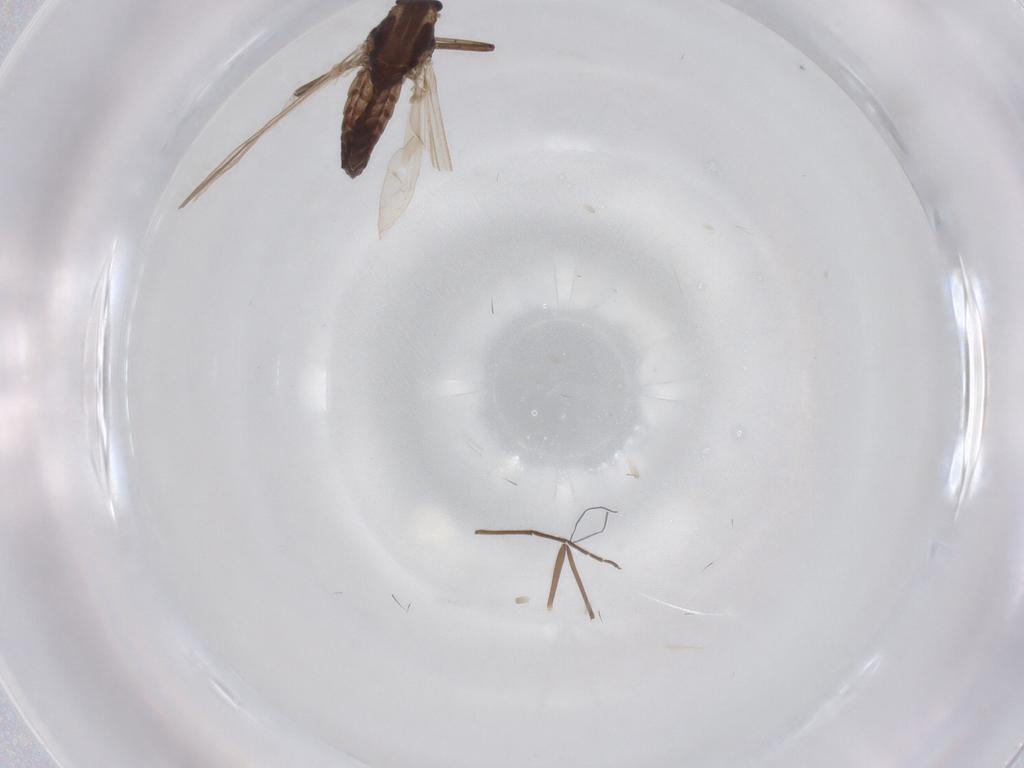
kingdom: Animalia
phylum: Arthropoda
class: Insecta
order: Diptera
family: Chironomidae
